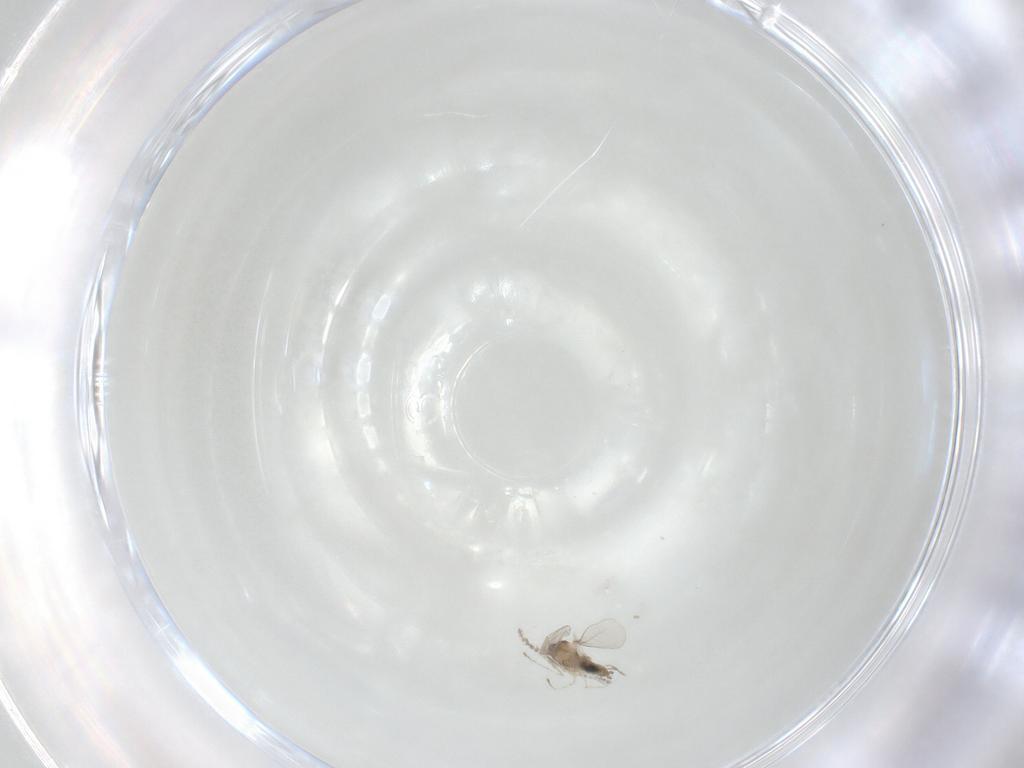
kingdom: Animalia
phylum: Arthropoda
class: Insecta
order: Diptera
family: Cecidomyiidae
